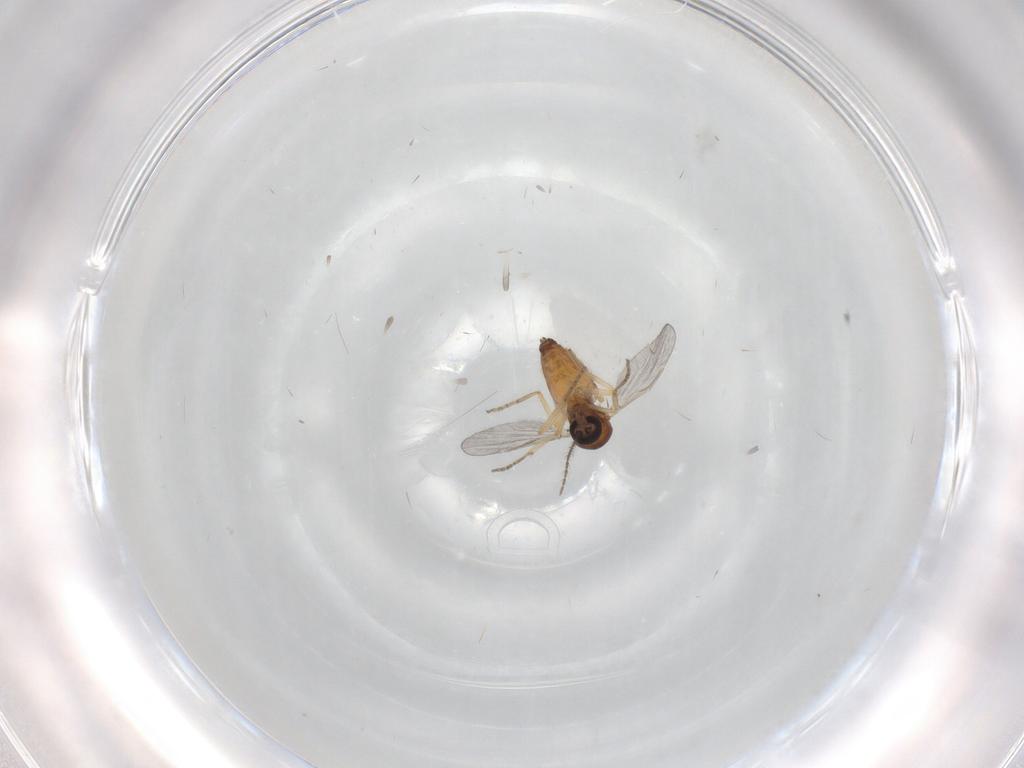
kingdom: Animalia
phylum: Arthropoda
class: Insecta
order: Diptera
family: Ceratopogonidae
